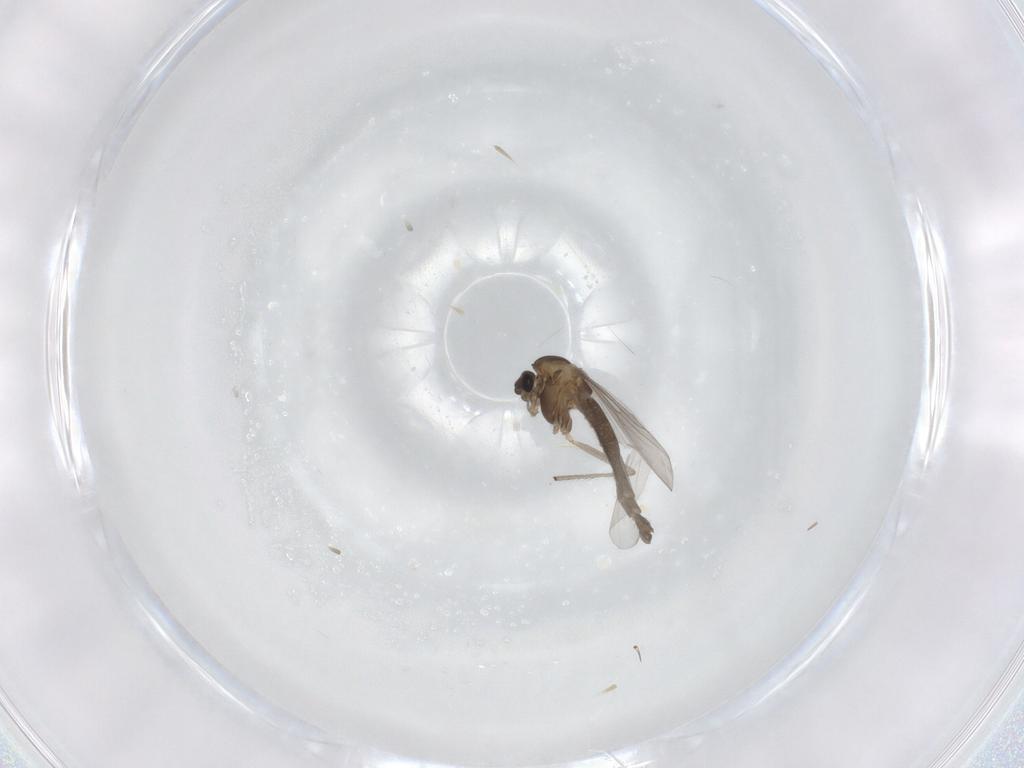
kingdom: Animalia
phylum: Arthropoda
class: Insecta
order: Diptera
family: Chironomidae
